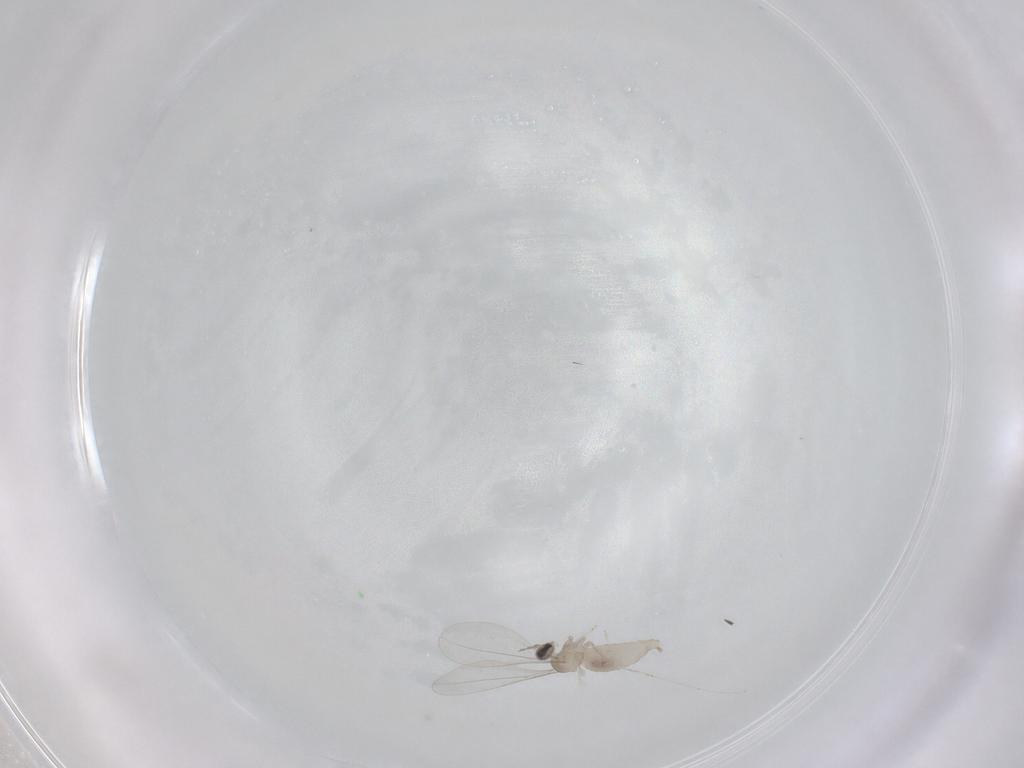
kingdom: Animalia
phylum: Arthropoda
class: Insecta
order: Diptera
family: Cecidomyiidae
